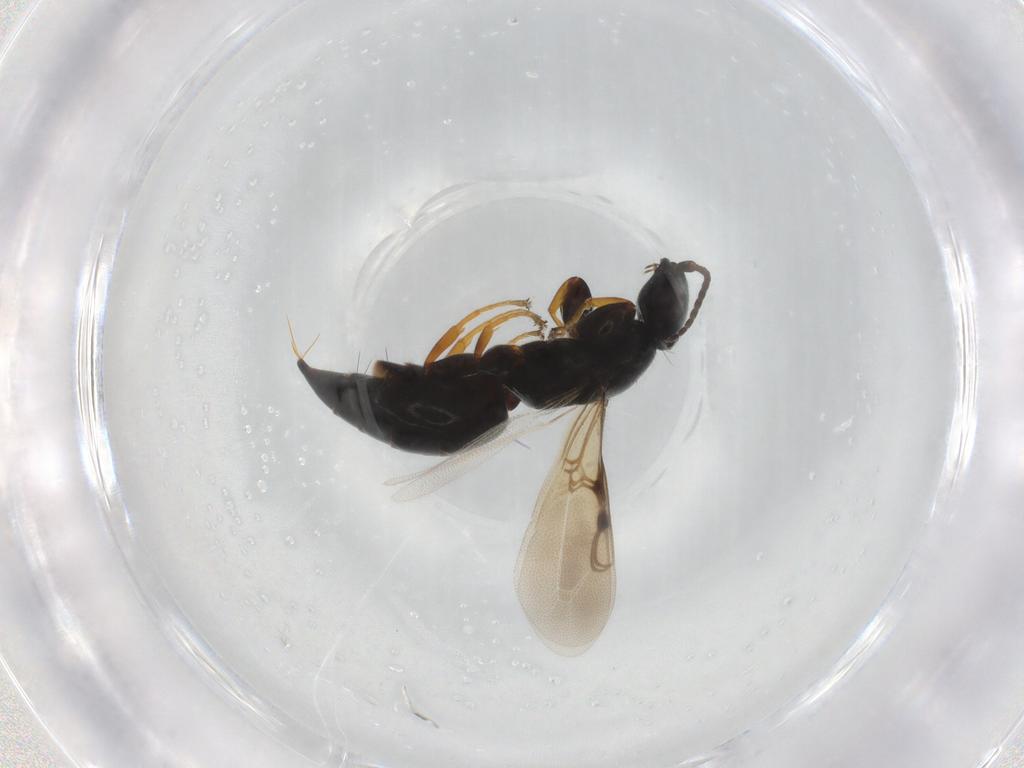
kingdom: Animalia
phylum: Arthropoda
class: Insecta
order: Hymenoptera
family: Bethylidae
